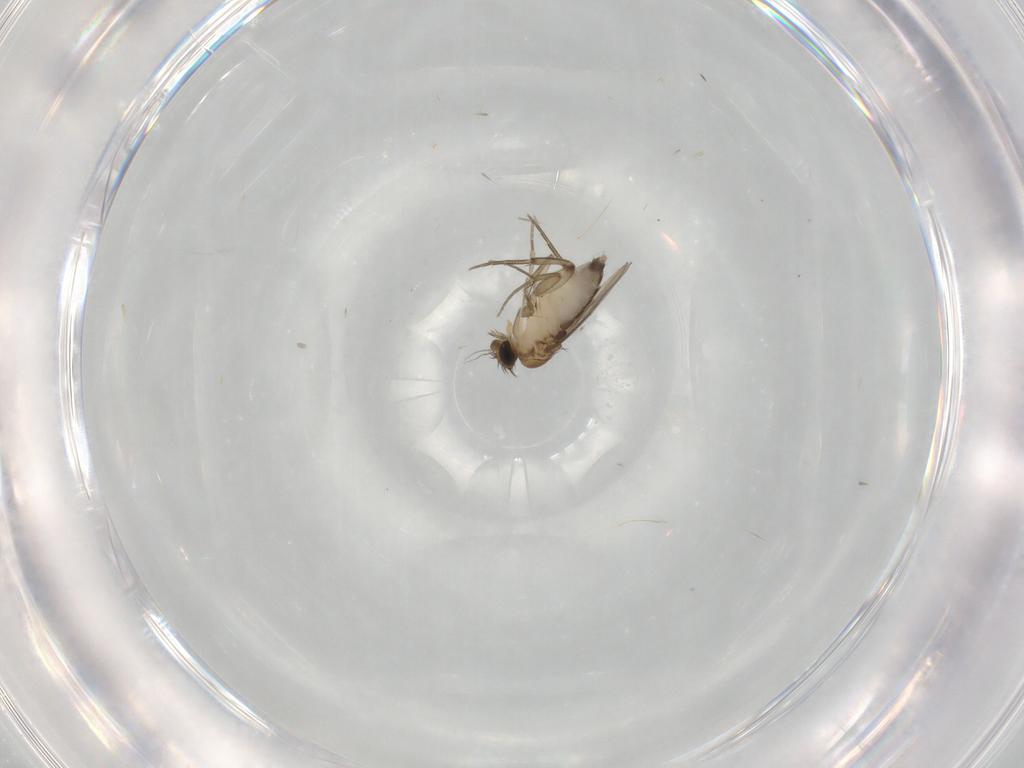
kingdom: Animalia
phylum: Arthropoda
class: Insecta
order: Diptera
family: Phoridae
